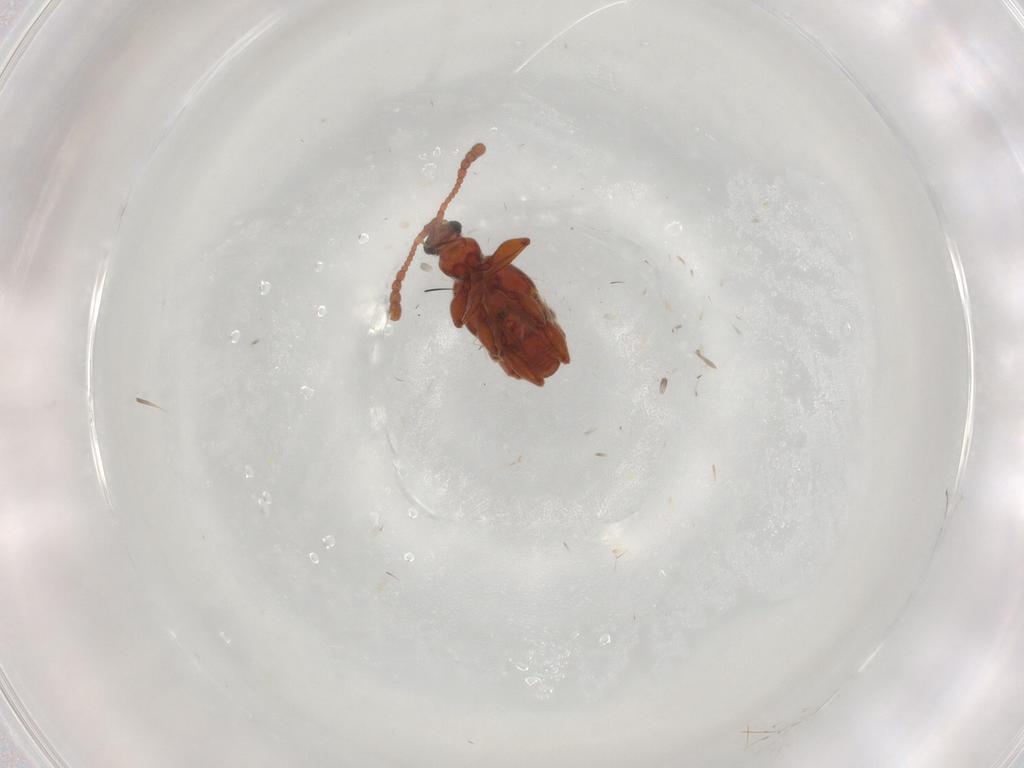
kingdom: Animalia
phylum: Arthropoda
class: Insecta
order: Coleoptera
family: Staphylinidae
